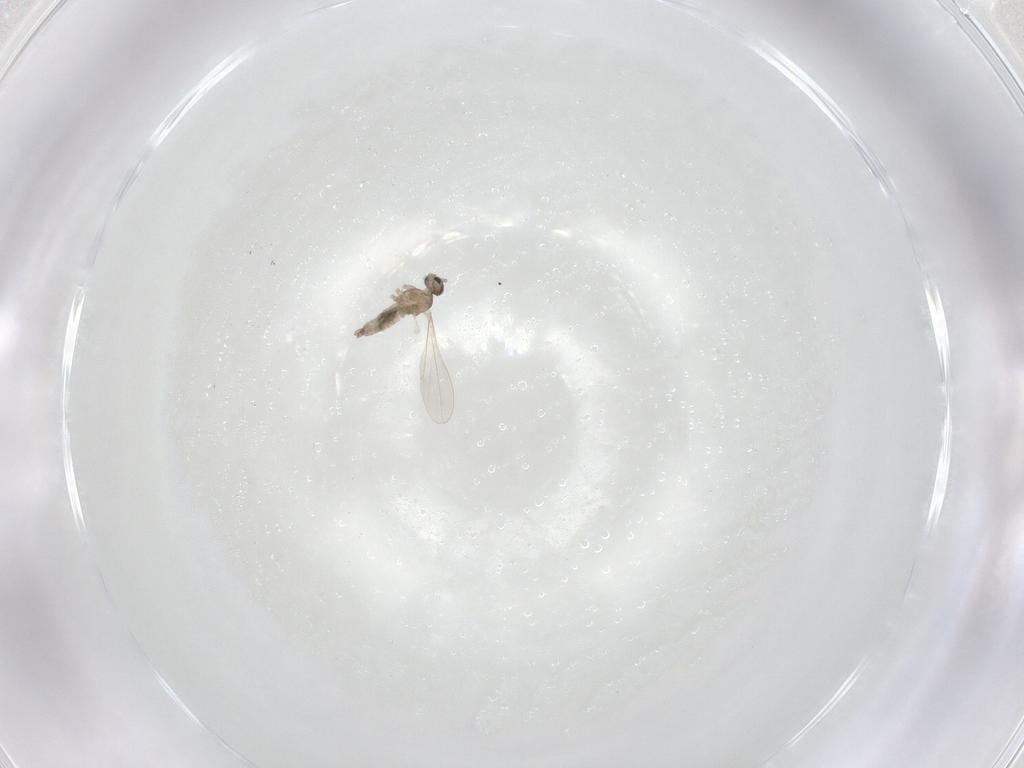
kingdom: Animalia
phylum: Arthropoda
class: Insecta
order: Diptera
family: Cecidomyiidae
